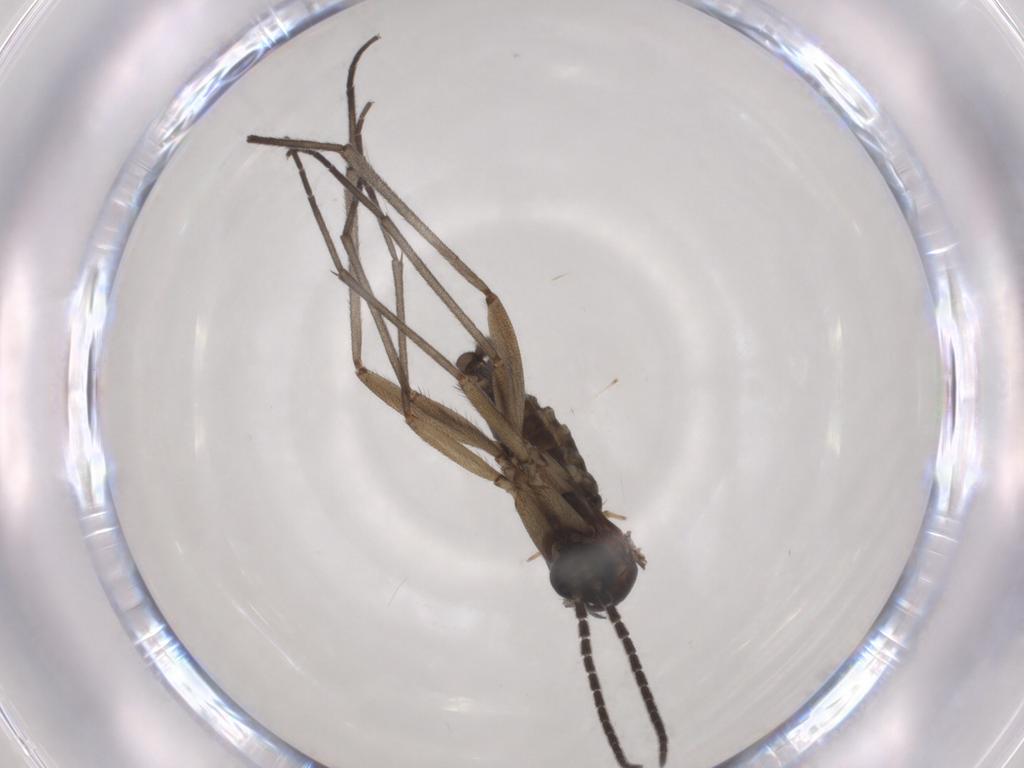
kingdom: Animalia
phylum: Arthropoda
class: Insecta
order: Diptera
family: Sciaridae
